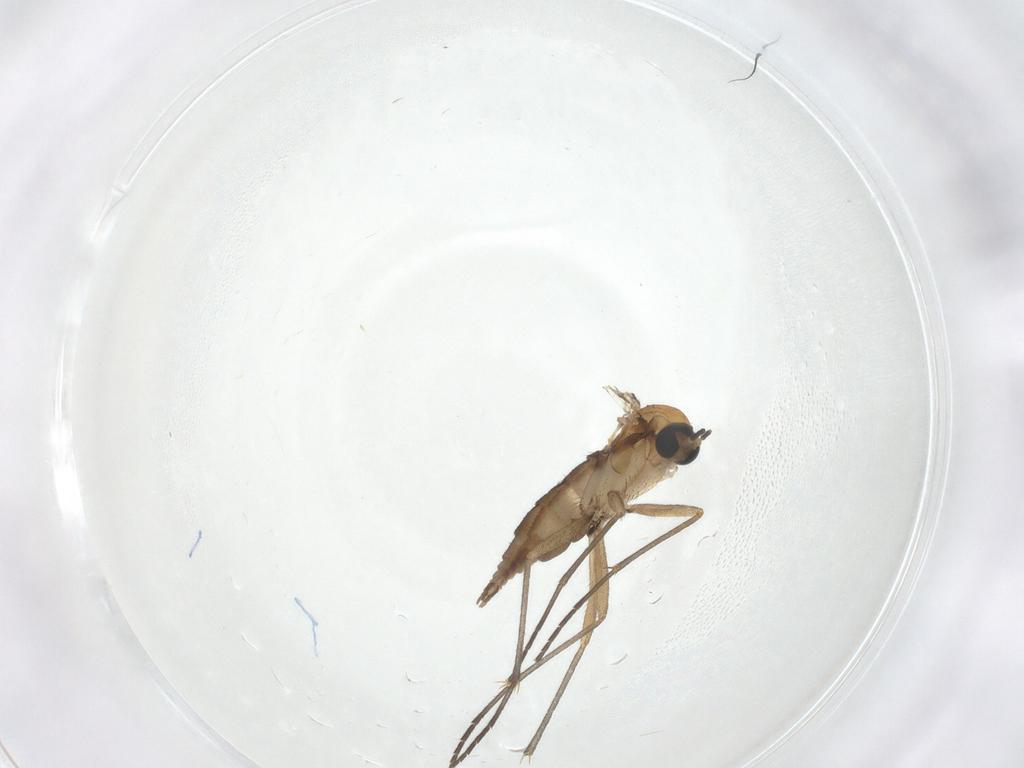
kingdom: Animalia
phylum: Arthropoda
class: Insecta
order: Diptera
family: Sciaridae
